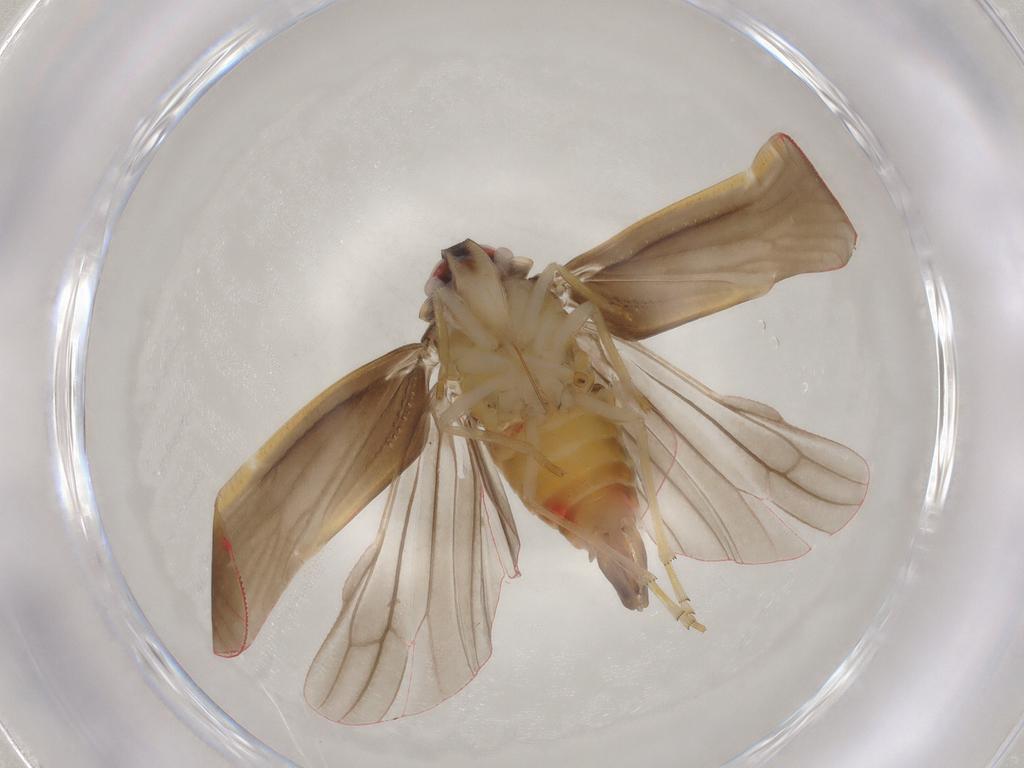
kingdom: Animalia
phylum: Arthropoda
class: Insecta
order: Hemiptera
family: Derbidae
